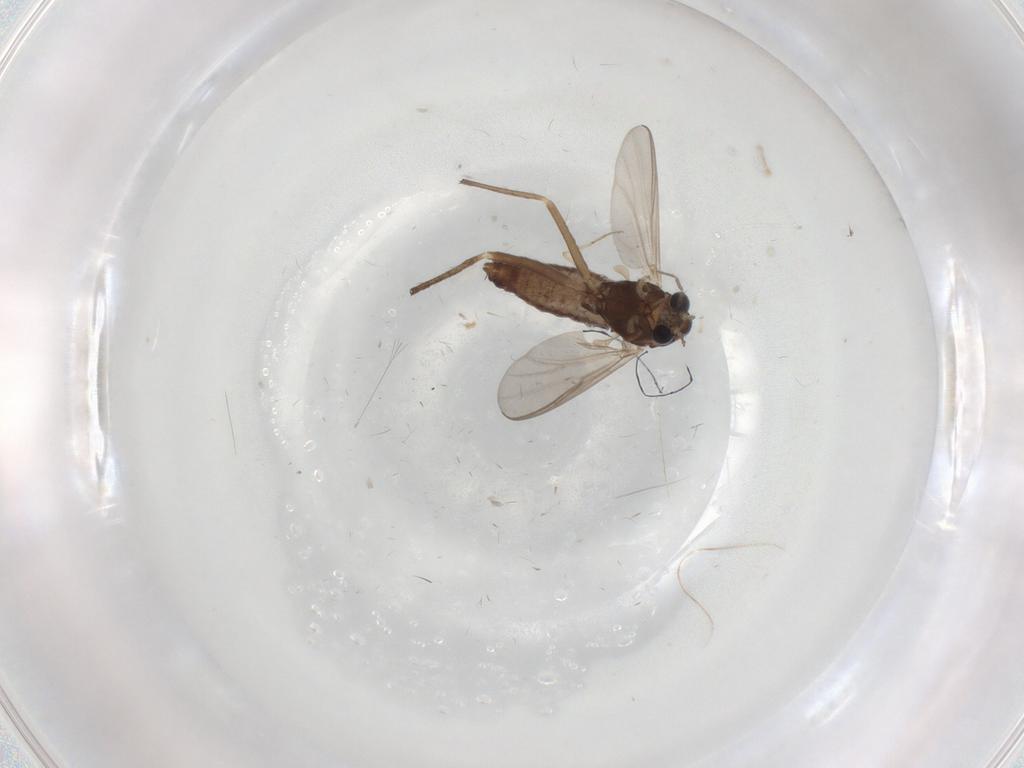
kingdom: Animalia
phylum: Arthropoda
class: Insecta
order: Diptera
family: Chironomidae
